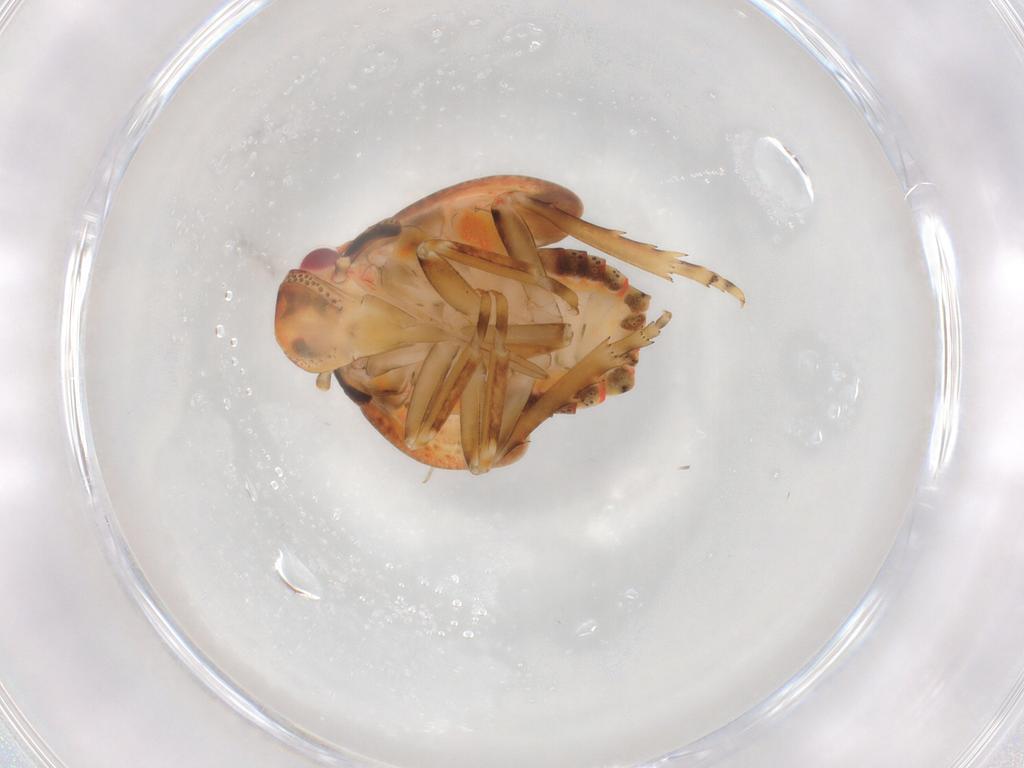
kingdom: Animalia
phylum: Arthropoda
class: Insecta
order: Hemiptera
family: Flatidae
